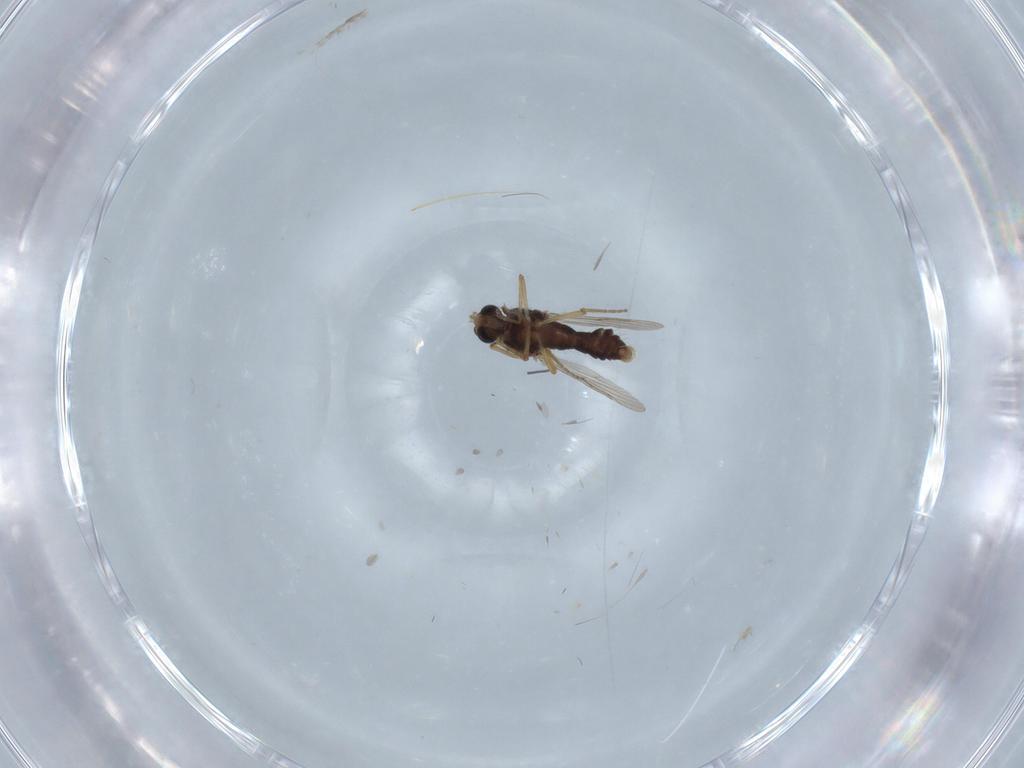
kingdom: Animalia
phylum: Arthropoda
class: Insecta
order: Diptera
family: Ceratopogonidae
